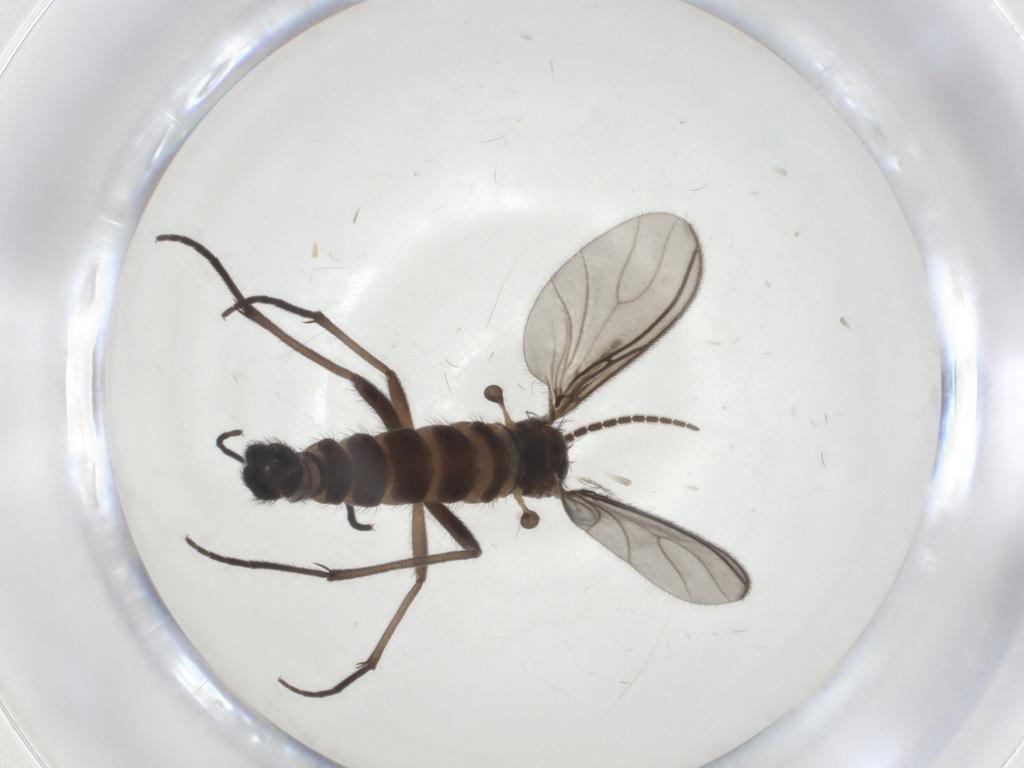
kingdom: Animalia
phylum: Arthropoda
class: Insecta
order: Diptera
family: Sciaridae
